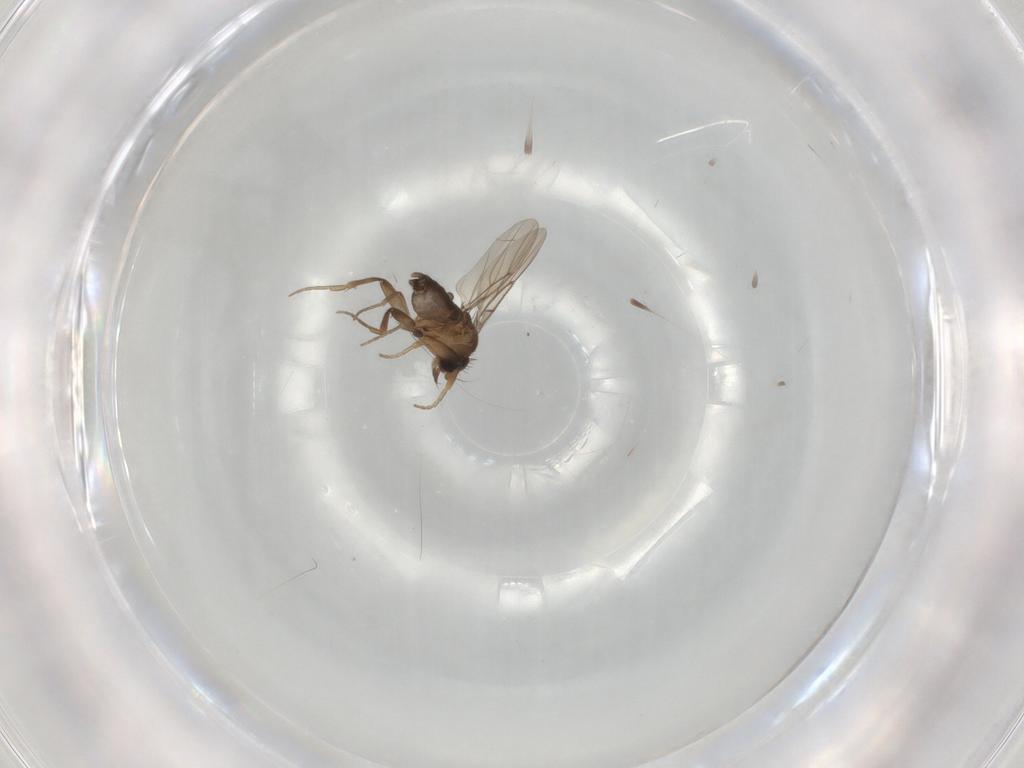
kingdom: Animalia
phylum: Arthropoda
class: Insecta
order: Diptera
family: Phoridae
